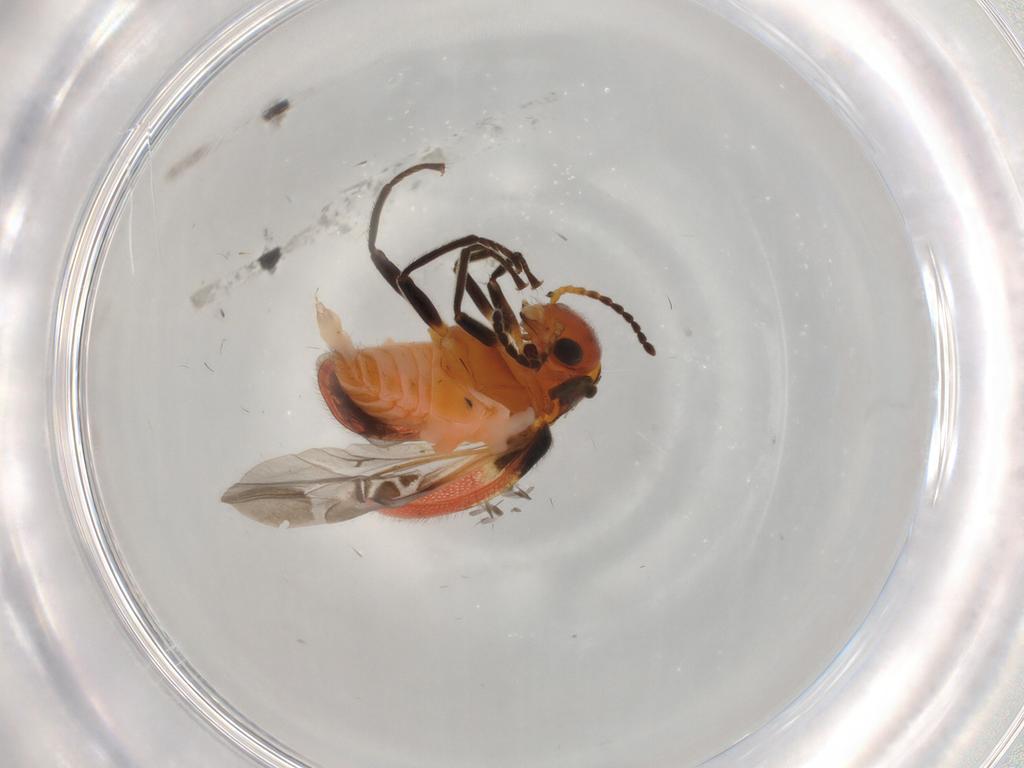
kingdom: Animalia
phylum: Arthropoda
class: Insecta
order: Coleoptera
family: Melyridae
